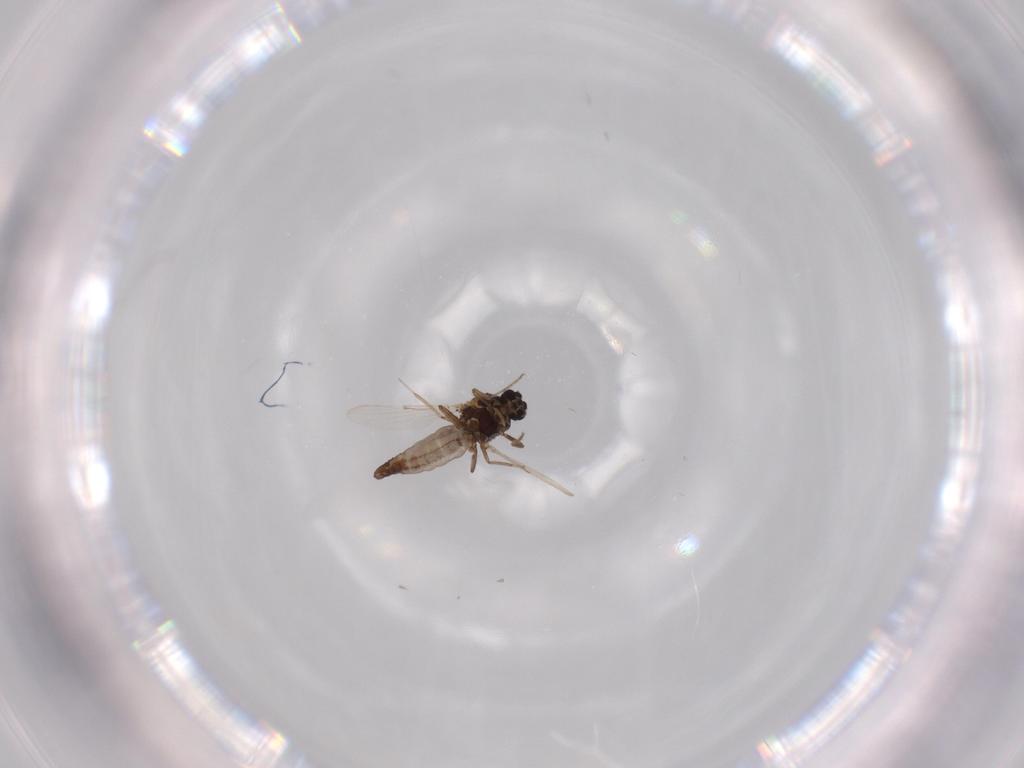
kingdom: Animalia
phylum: Arthropoda
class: Insecta
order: Diptera
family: Ceratopogonidae
